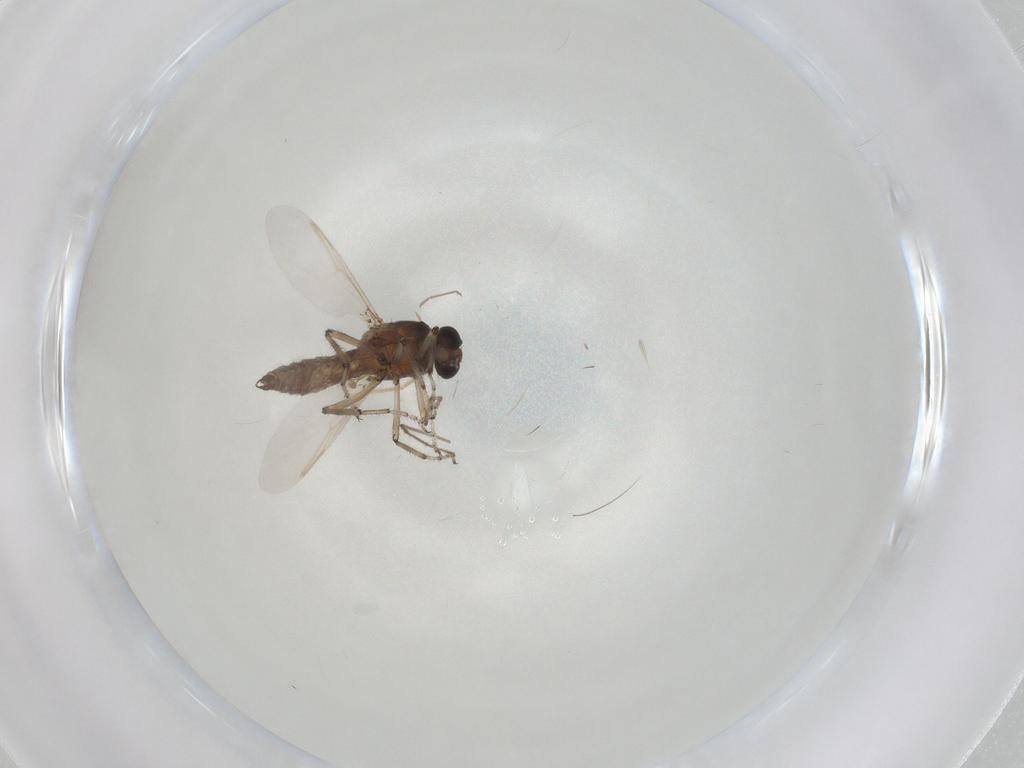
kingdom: Animalia
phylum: Arthropoda
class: Insecta
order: Diptera
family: Ceratopogonidae
